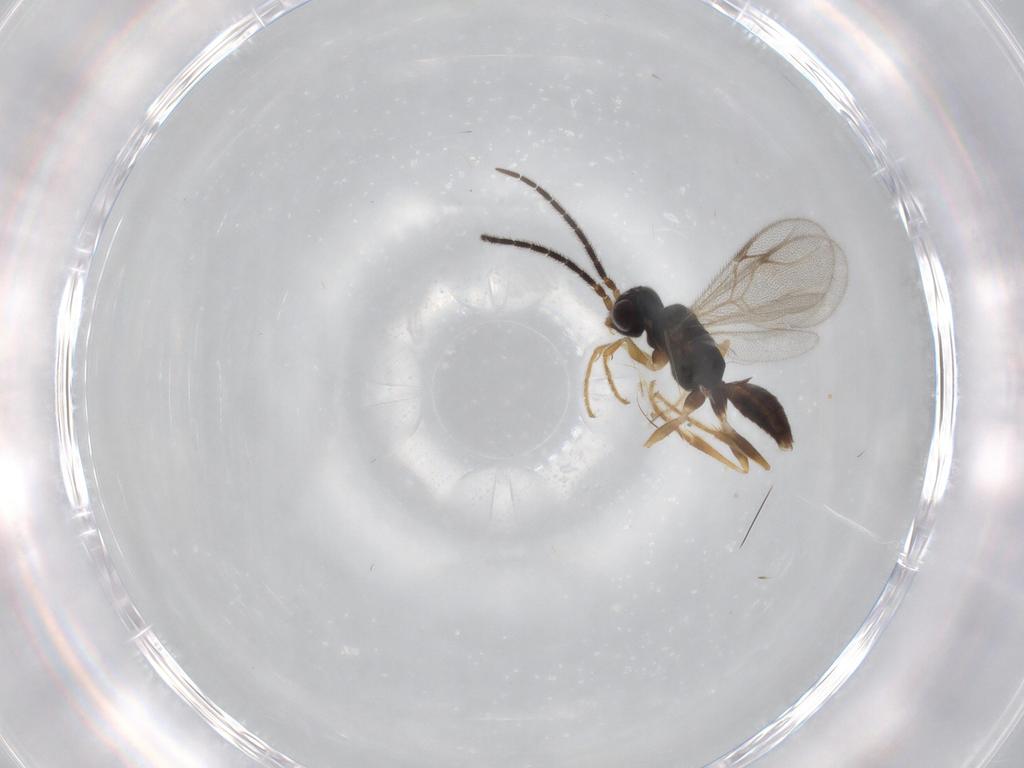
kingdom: Animalia
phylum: Arthropoda
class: Insecta
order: Hymenoptera
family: Dryinidae
